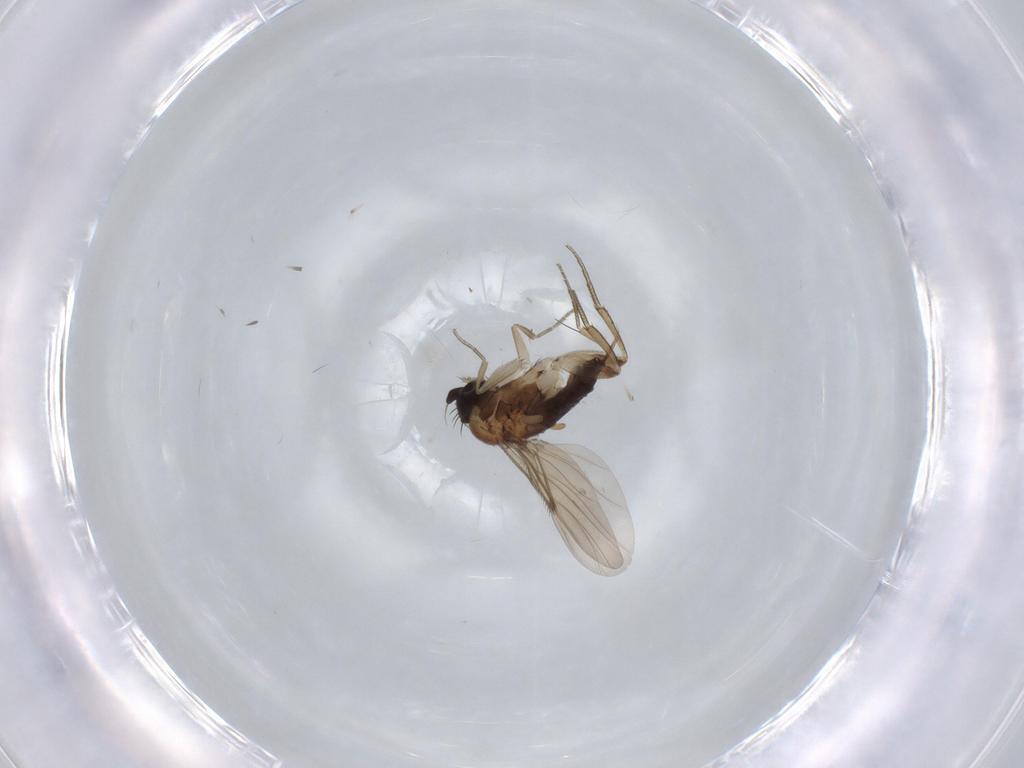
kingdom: Animalia
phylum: Arthropoda
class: Insecta
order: Diptera
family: Phoridae
